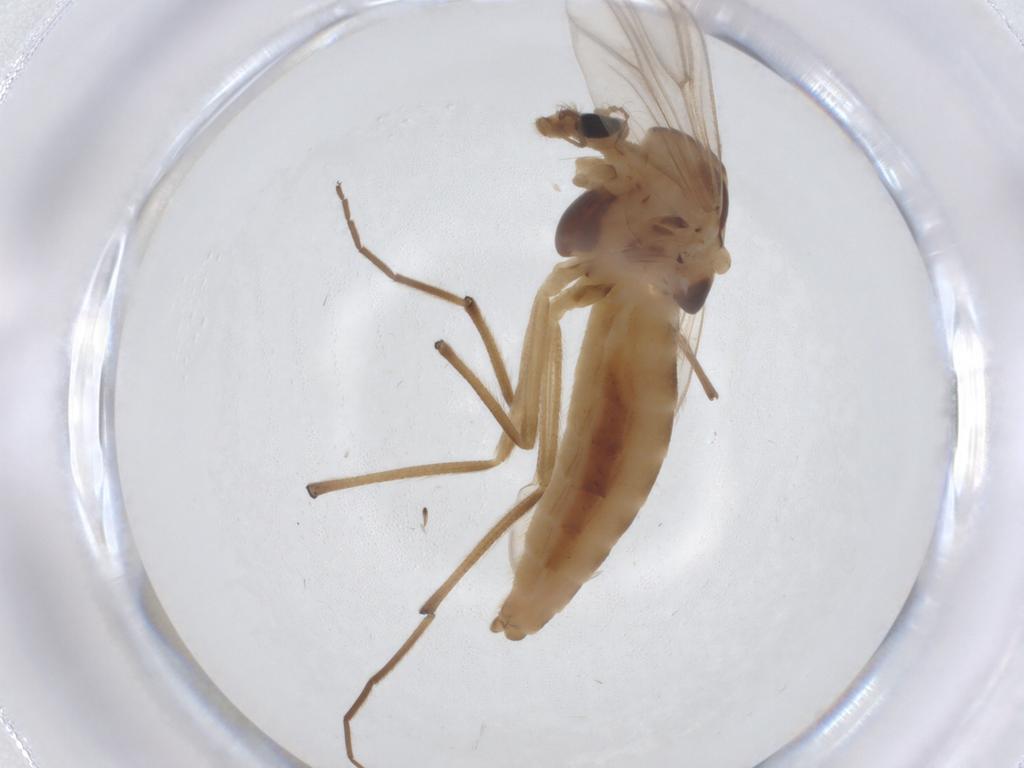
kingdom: Animalia
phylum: Arthropoda
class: Insecta
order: Diptera
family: Chironomidae
